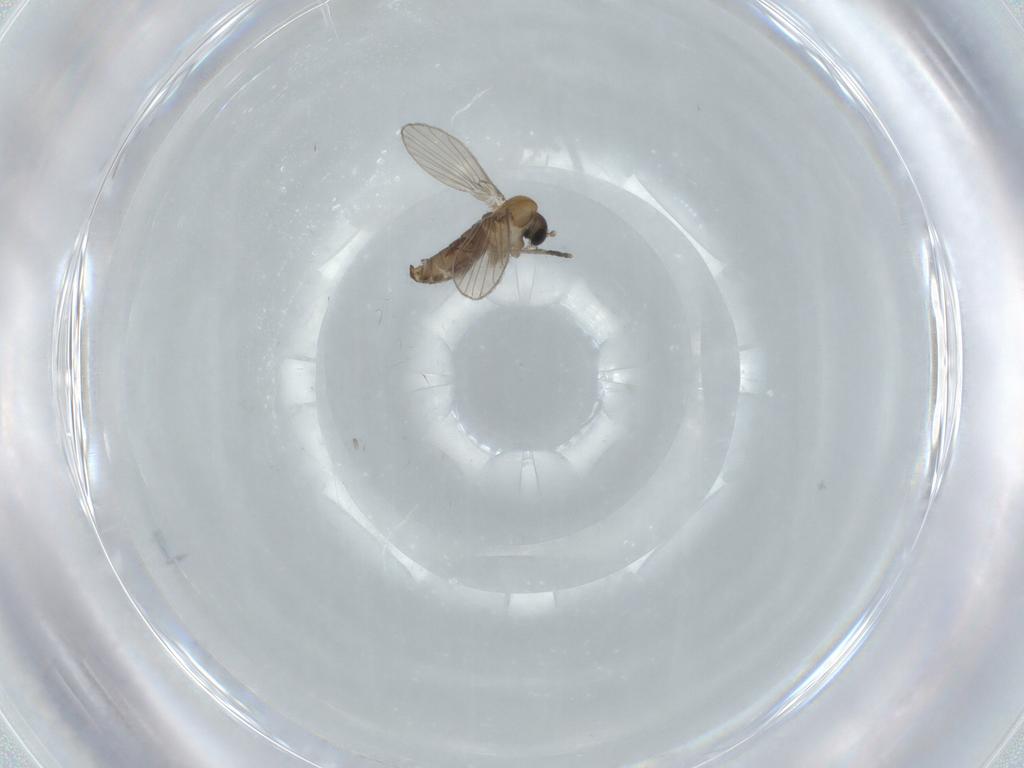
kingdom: Animalia
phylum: Arthropoda
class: Insecta
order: Diptera
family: Psychodidae
